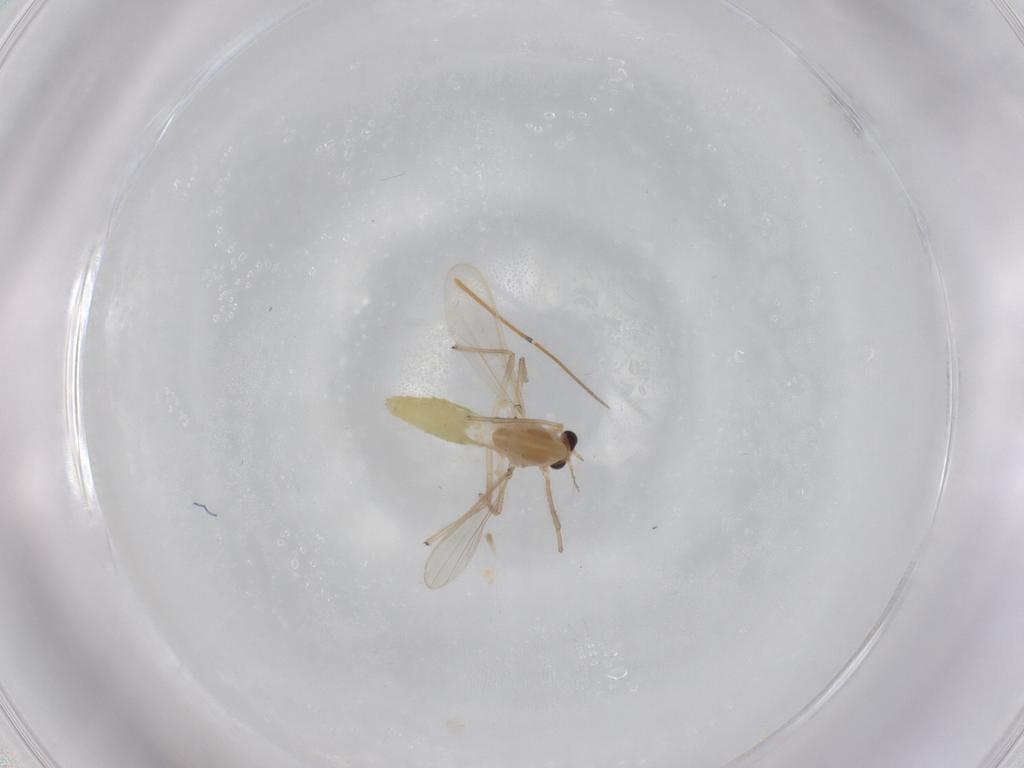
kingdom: Animalia
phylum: Arthropoda
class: Insecta
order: Diptera
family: Chironomidae
